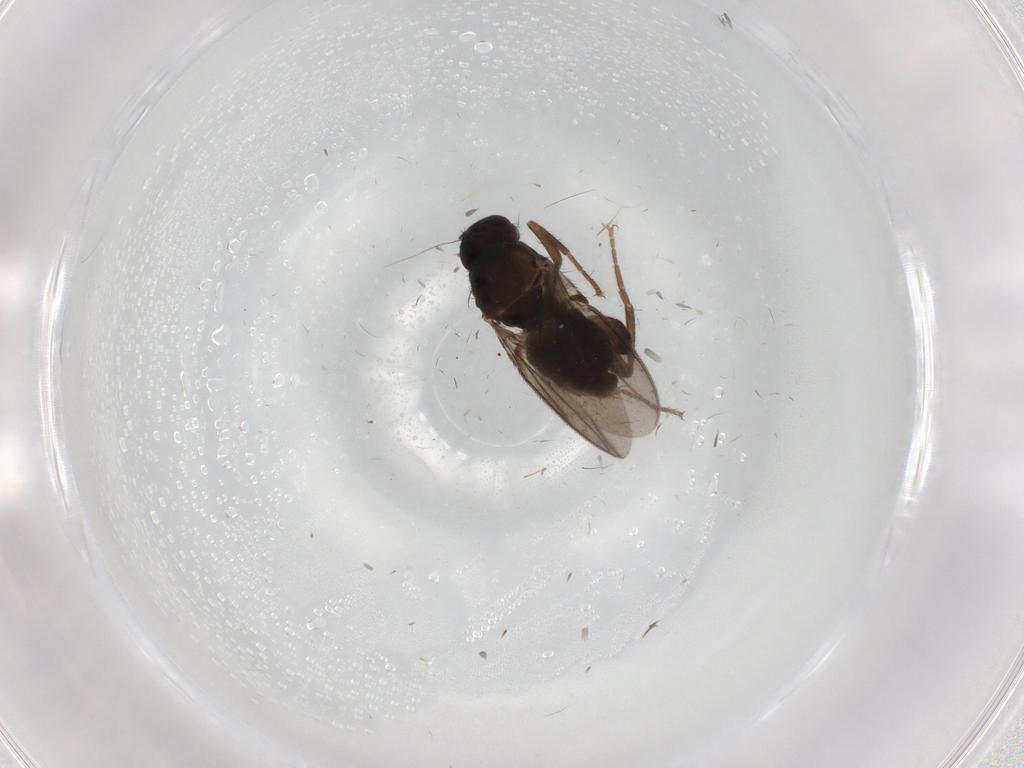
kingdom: Animalia
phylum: Arthropoda
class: Insecta
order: Diptera
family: Sphaeroceridae
